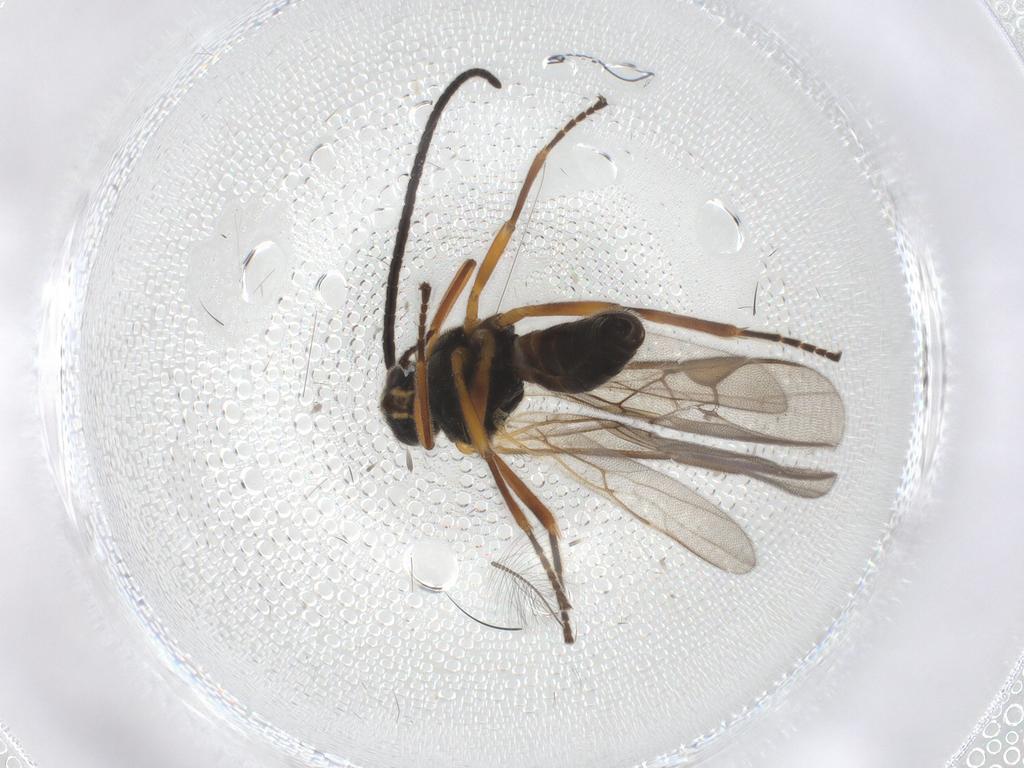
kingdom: Animalia
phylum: Arthropoda
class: Insecta
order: Hymenoptera
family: Braconidae
